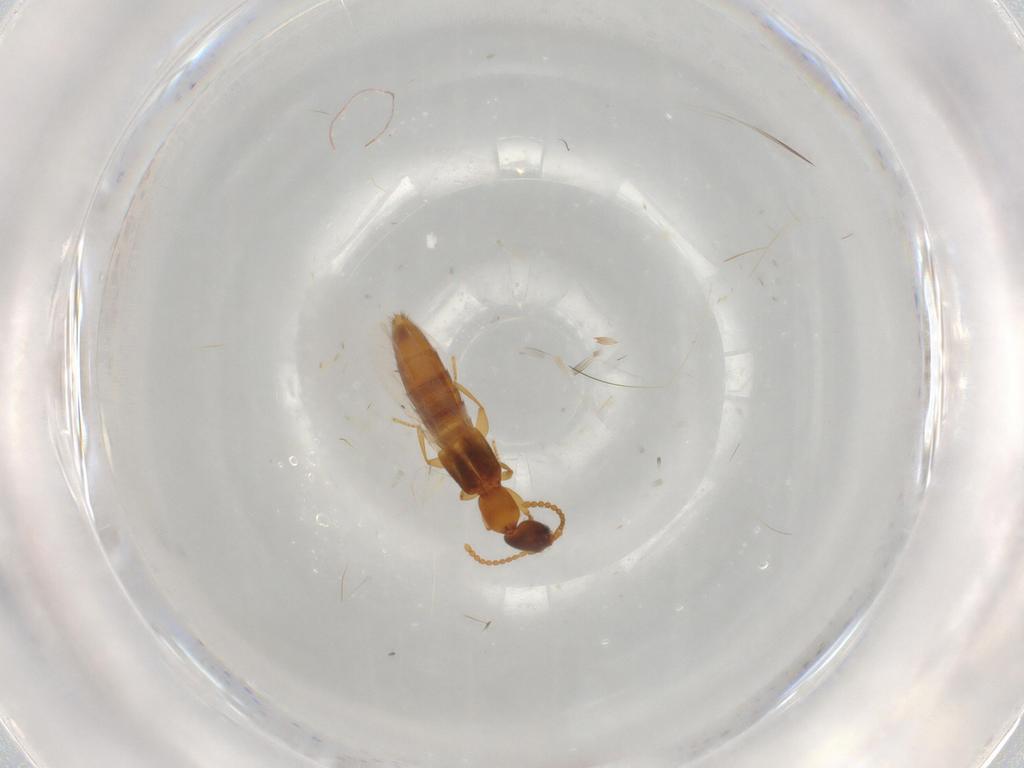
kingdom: Animalia
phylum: Arthropoda
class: Insecta
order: Coleoptera
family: Staphylinidae
